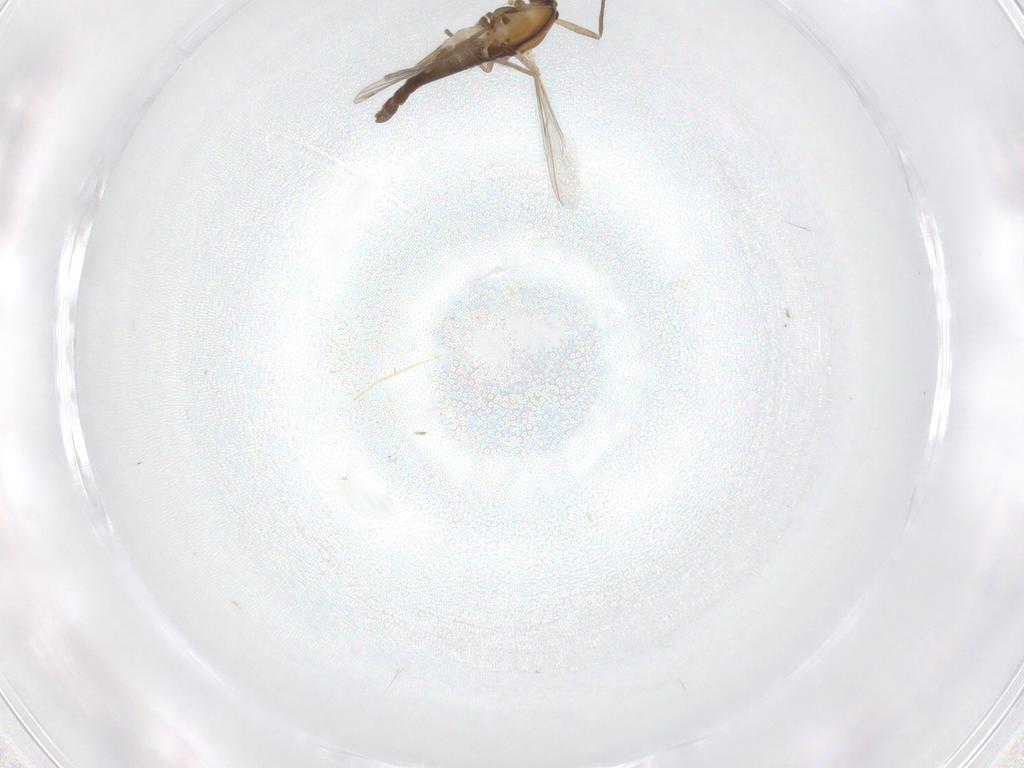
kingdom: Animalia
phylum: Arthropoda
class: Insecta
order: Diptera
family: Chironomidae
